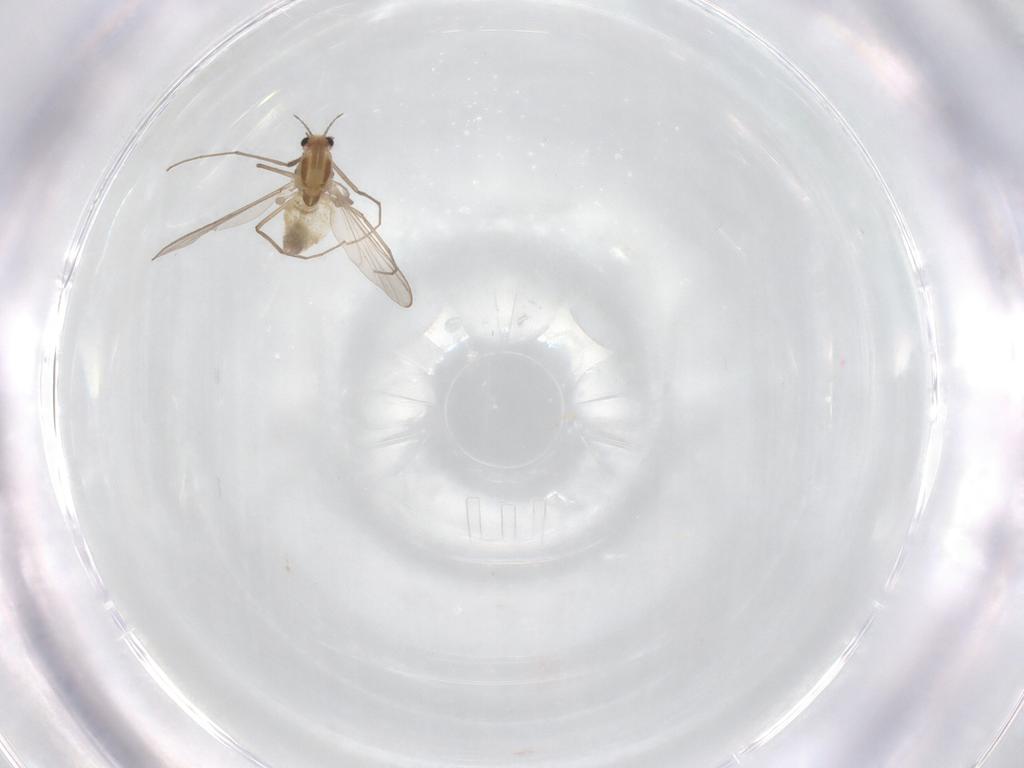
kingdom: Animalia
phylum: Arthropoda
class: Insecta
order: Diptera
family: Chironomidae
